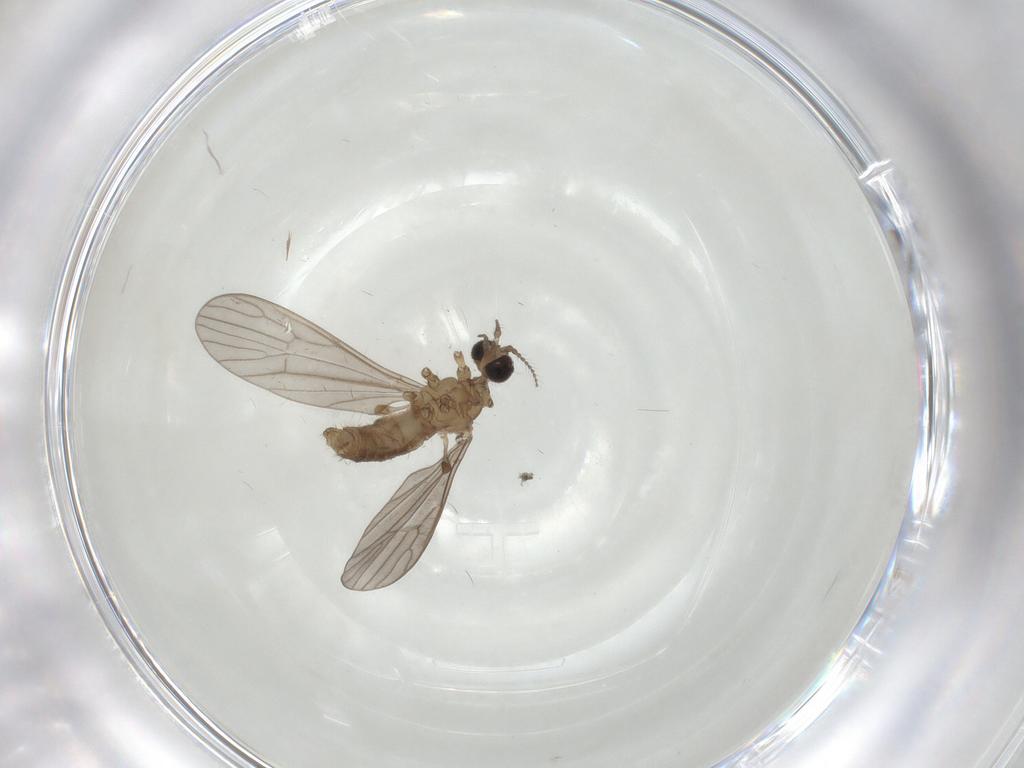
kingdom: Animalia
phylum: Arthropoda
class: Insecta
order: Diptera
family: Limoniidae
